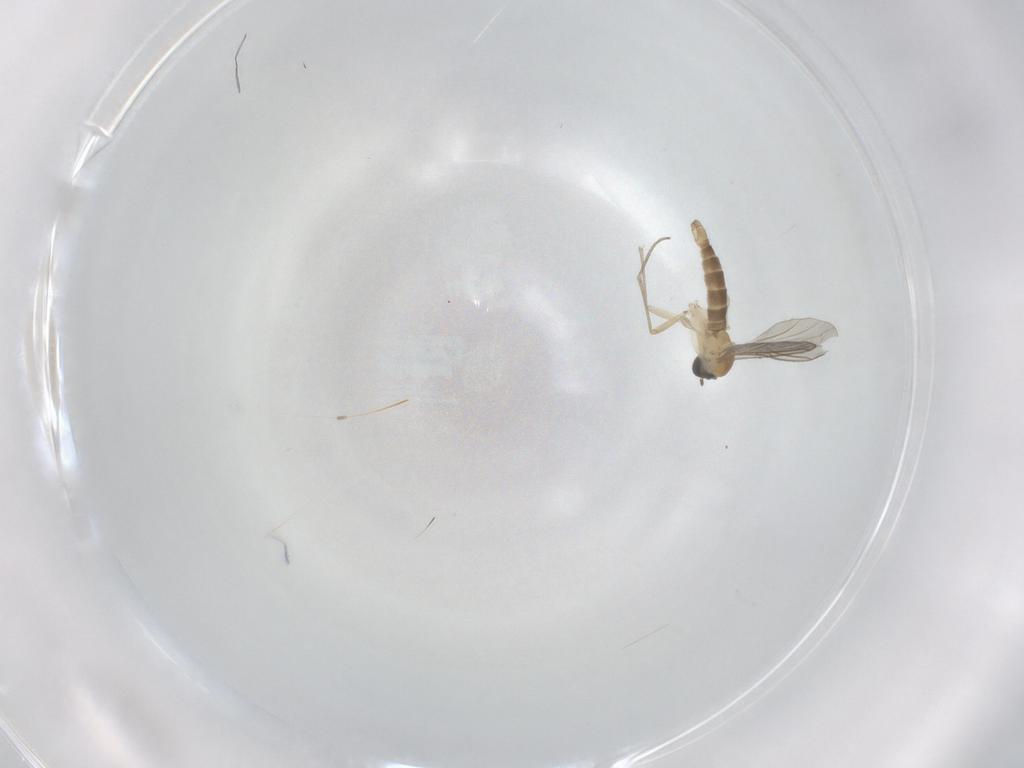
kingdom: Animalia
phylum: Arthropoda
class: Insecta
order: Diptera
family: Sciaridae
